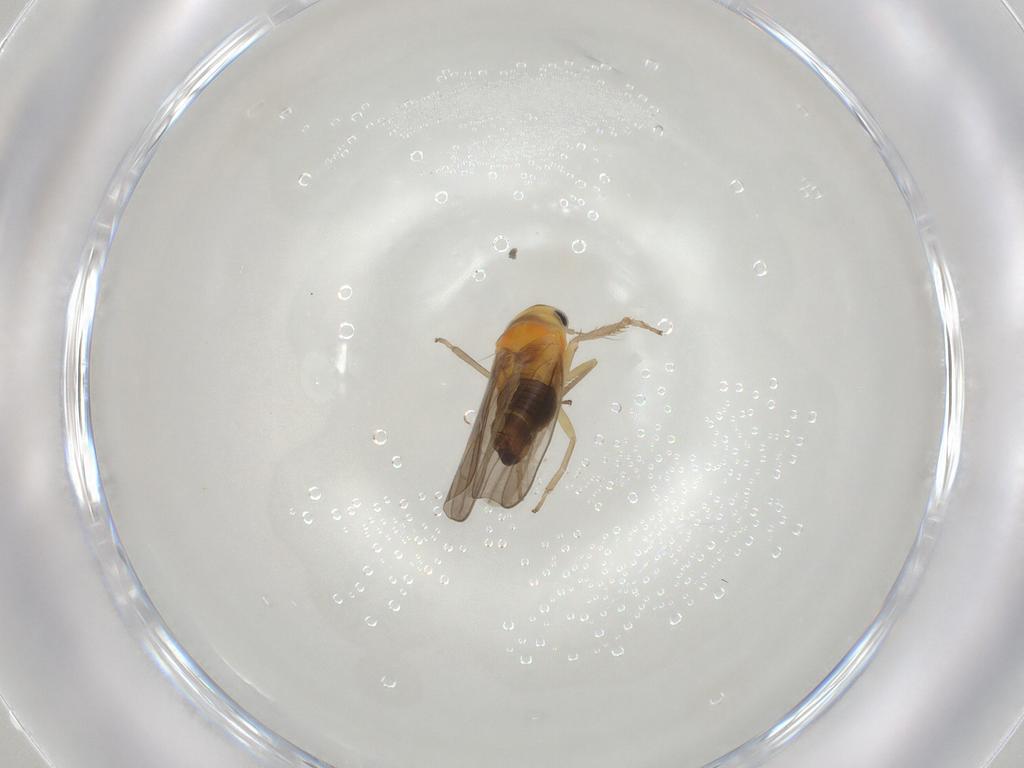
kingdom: Animalia
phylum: Arthropoda
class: Insecta
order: Hemiptera
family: Cicadellidae
